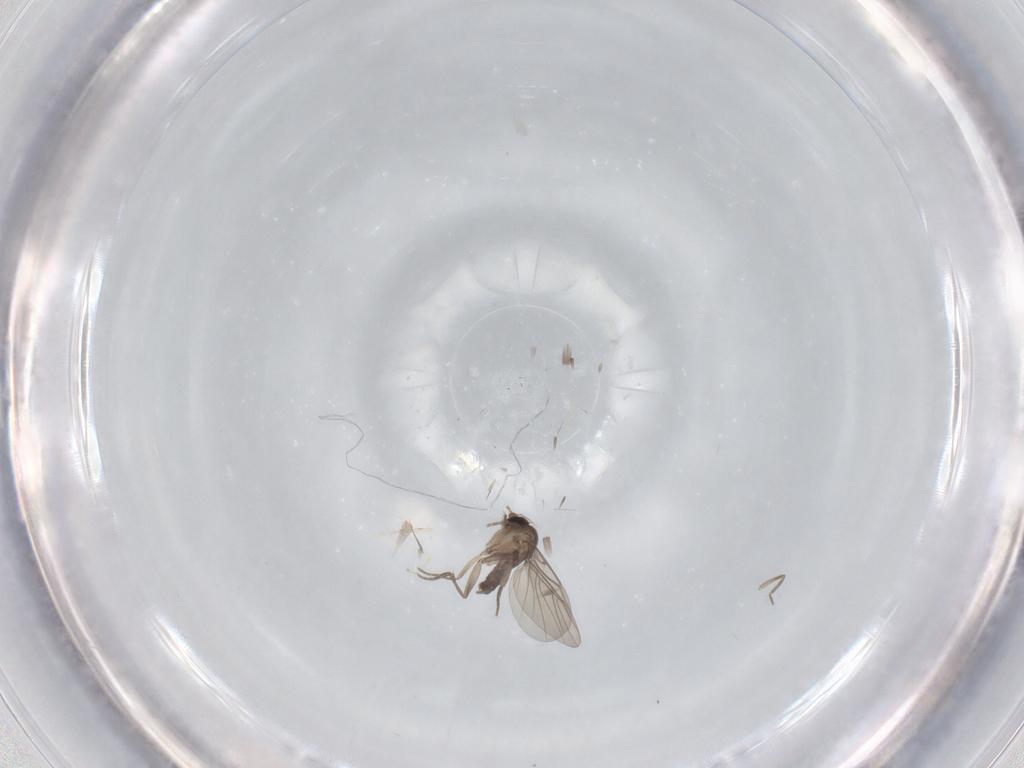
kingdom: Animalia
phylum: Arthropoda
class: Insecta
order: Diptera
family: Phoridae
